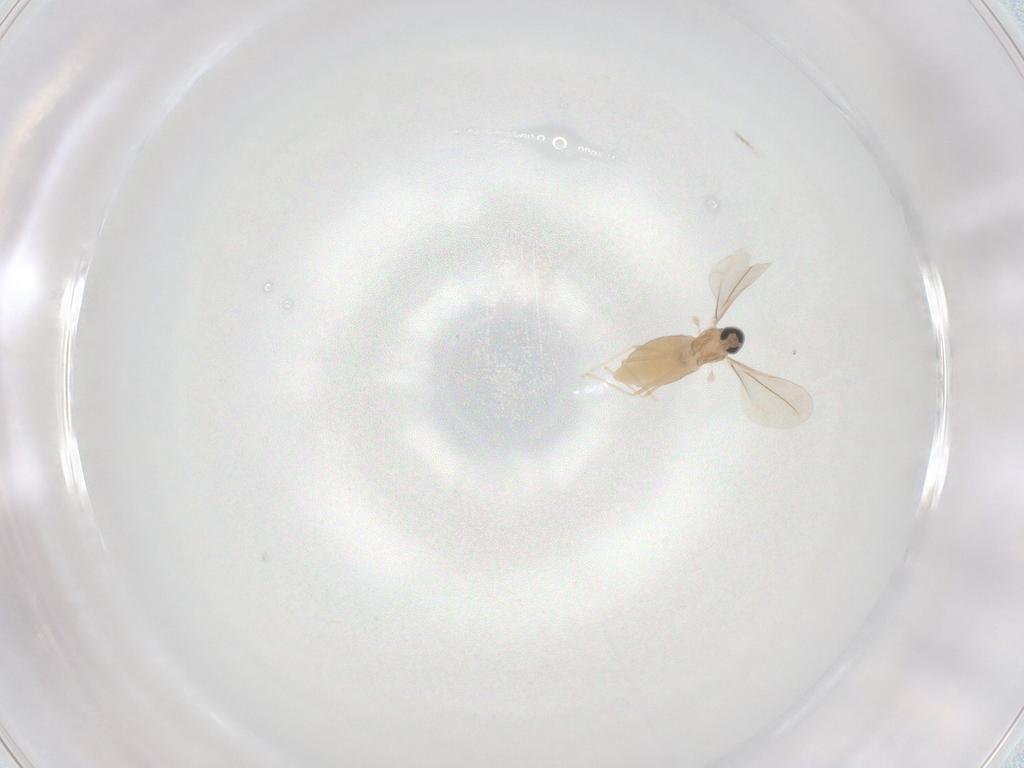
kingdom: Animalia
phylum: Arthropoda
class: Insecta
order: Diptera
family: Cecidomyiidae
